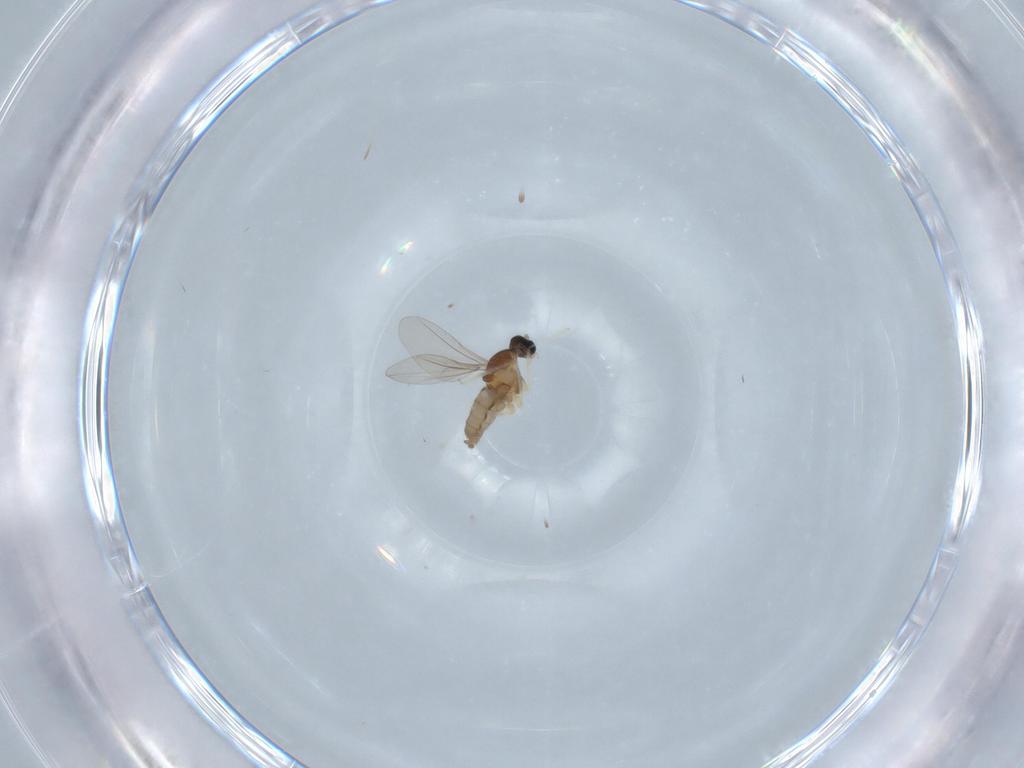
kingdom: Animalia
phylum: Arthropoda
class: Insecta
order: Diptera
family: Cecidomyiidae
